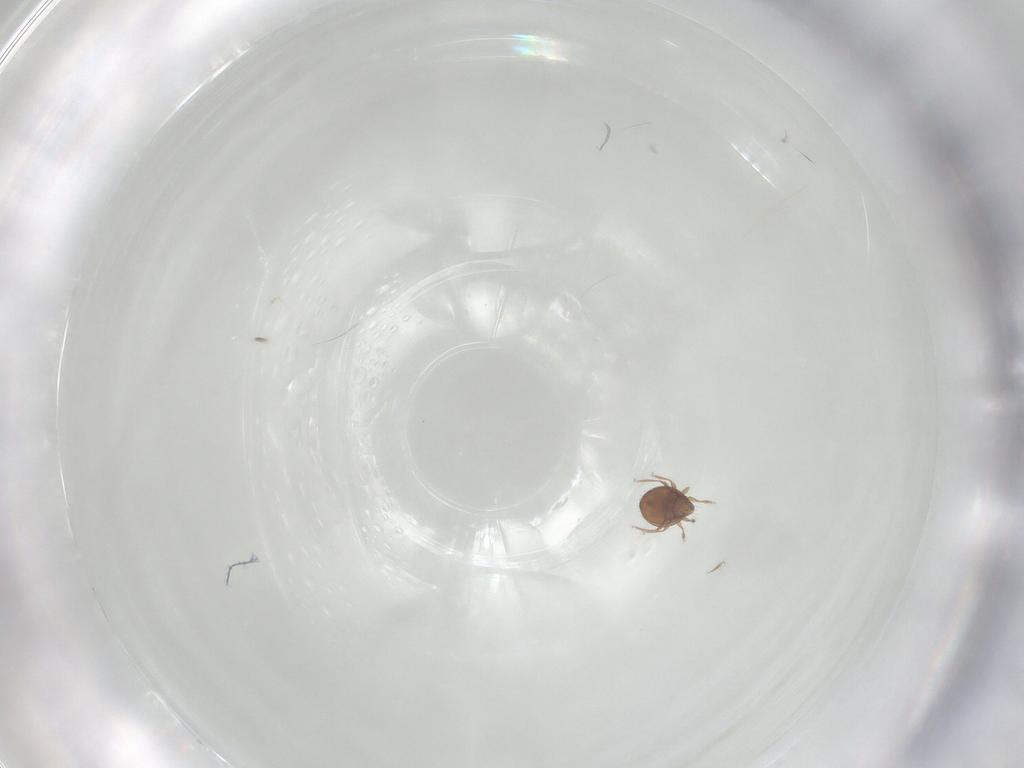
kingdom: Animalia
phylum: Arthropoda
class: Arachnida
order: Sarcoptiformes
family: Oribatulidae
